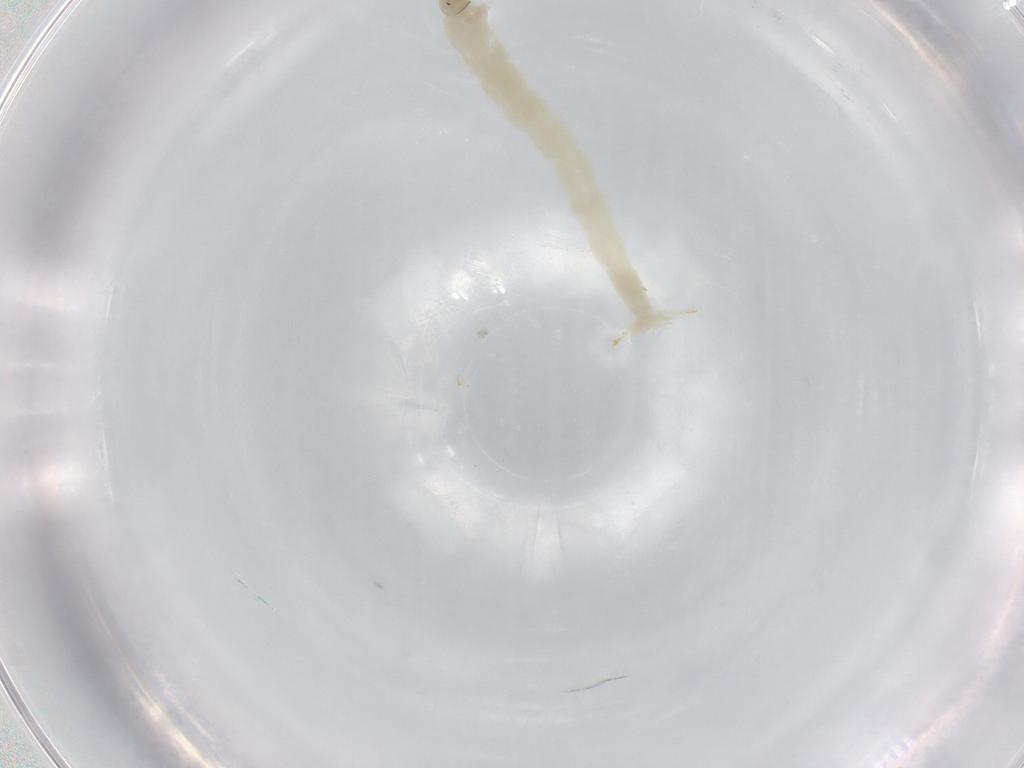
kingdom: Animalia
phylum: Arthropoda
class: Insecta
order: Diptera
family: Chironomidae
